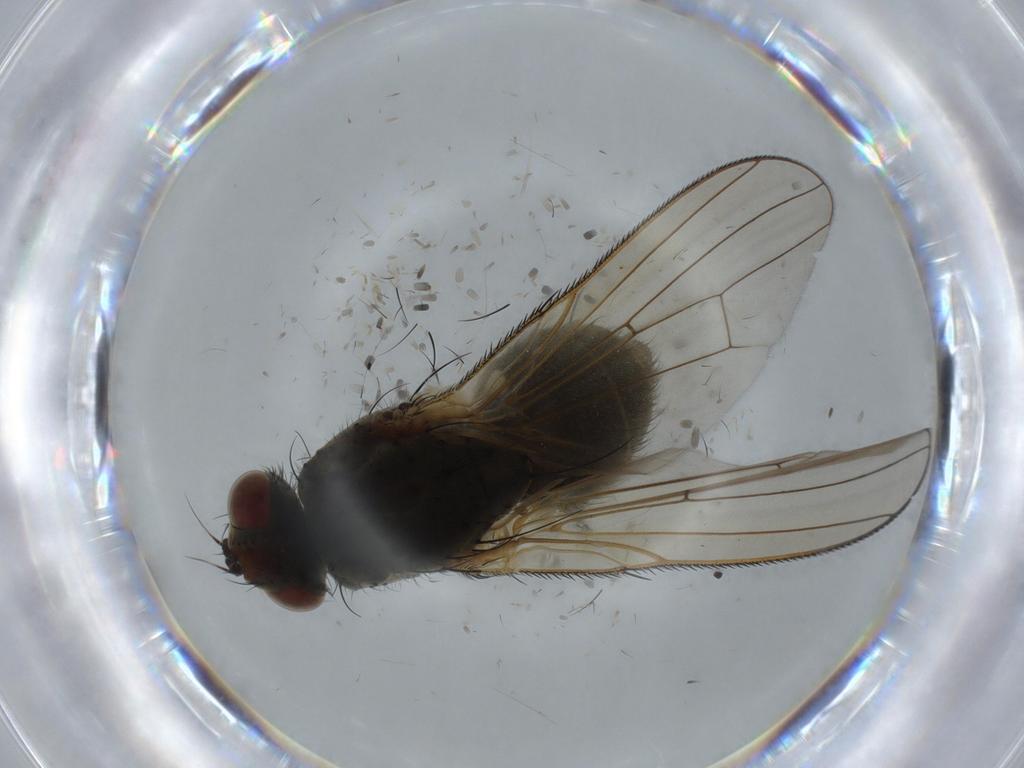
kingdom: Animalia
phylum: Arthropoda
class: Insecta
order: Diptera
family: Anthomyiidae
